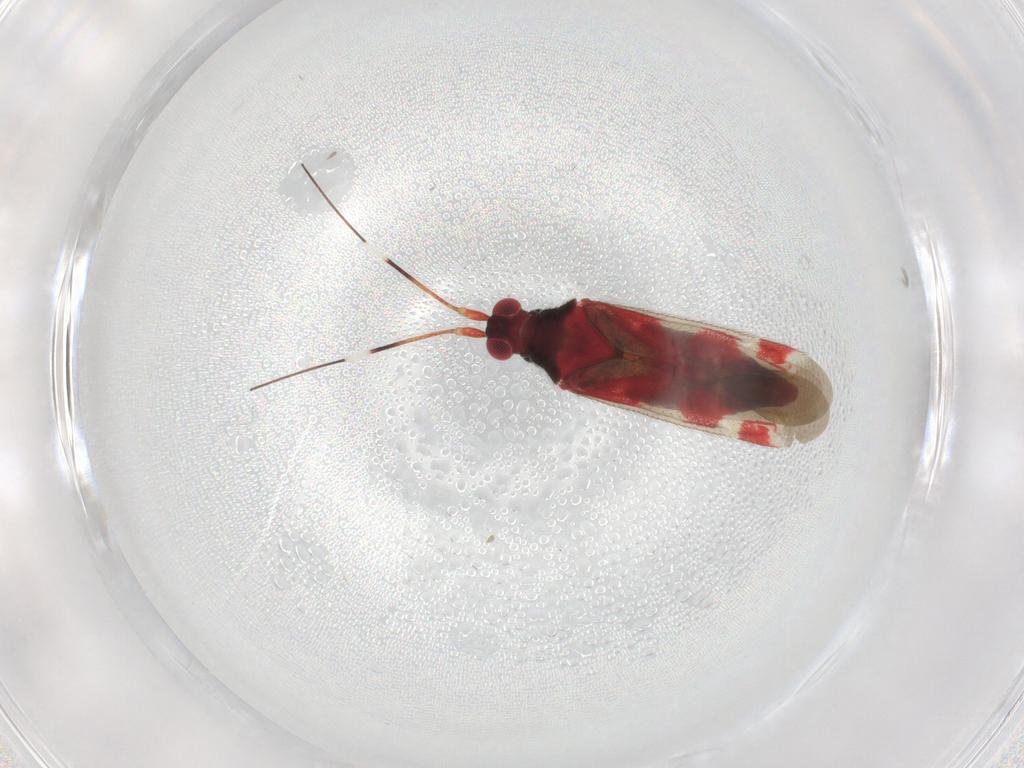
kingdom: Animalia
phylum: Arthropoda
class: Insecta
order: Hemiptera
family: Miridae
